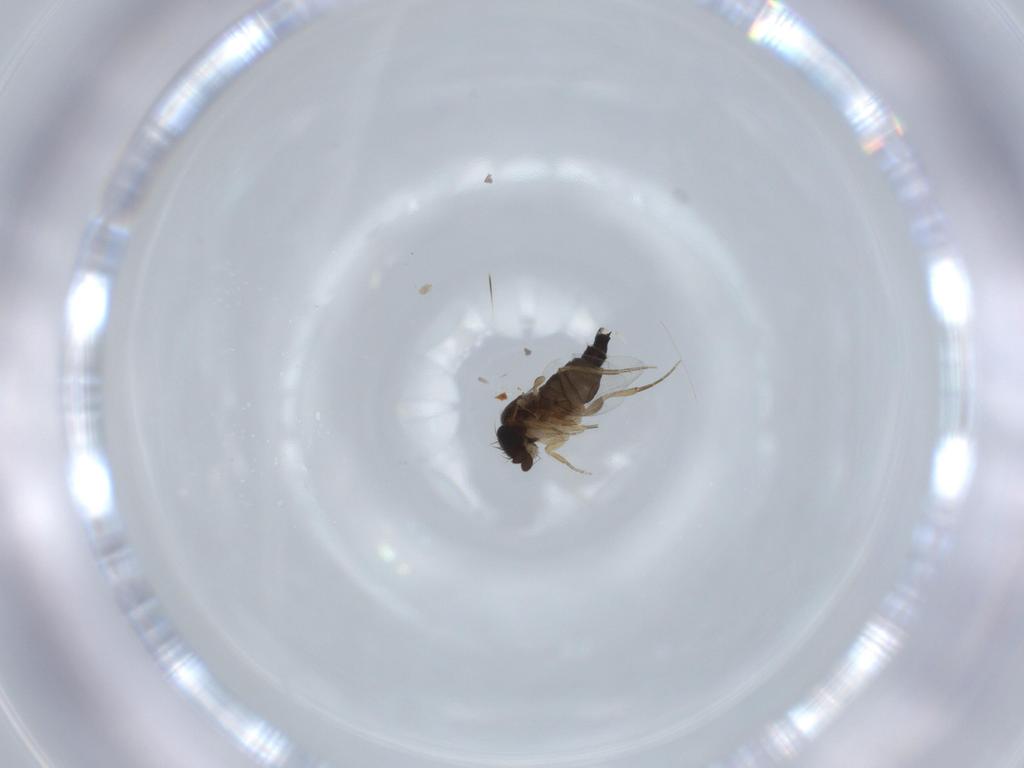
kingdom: Animalia
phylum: Arthropoda
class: Insecta
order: Diptera
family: Phoridae
